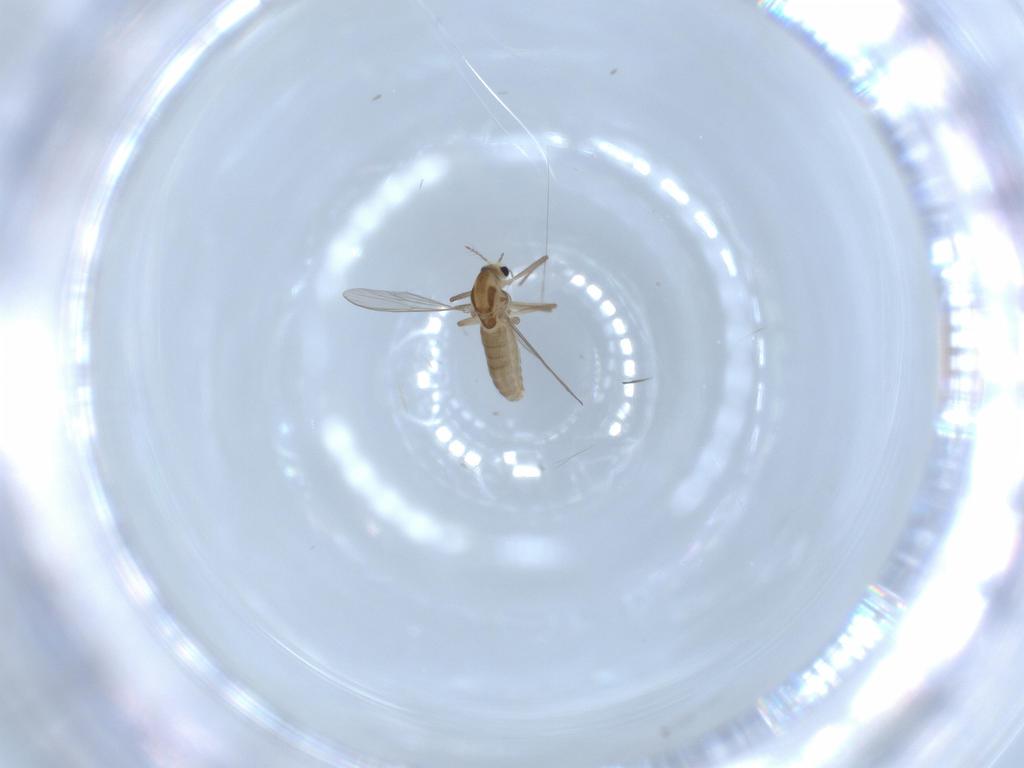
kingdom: Animalia
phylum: Arthropoda
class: Insecta
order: Diptera
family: Chironomidae
